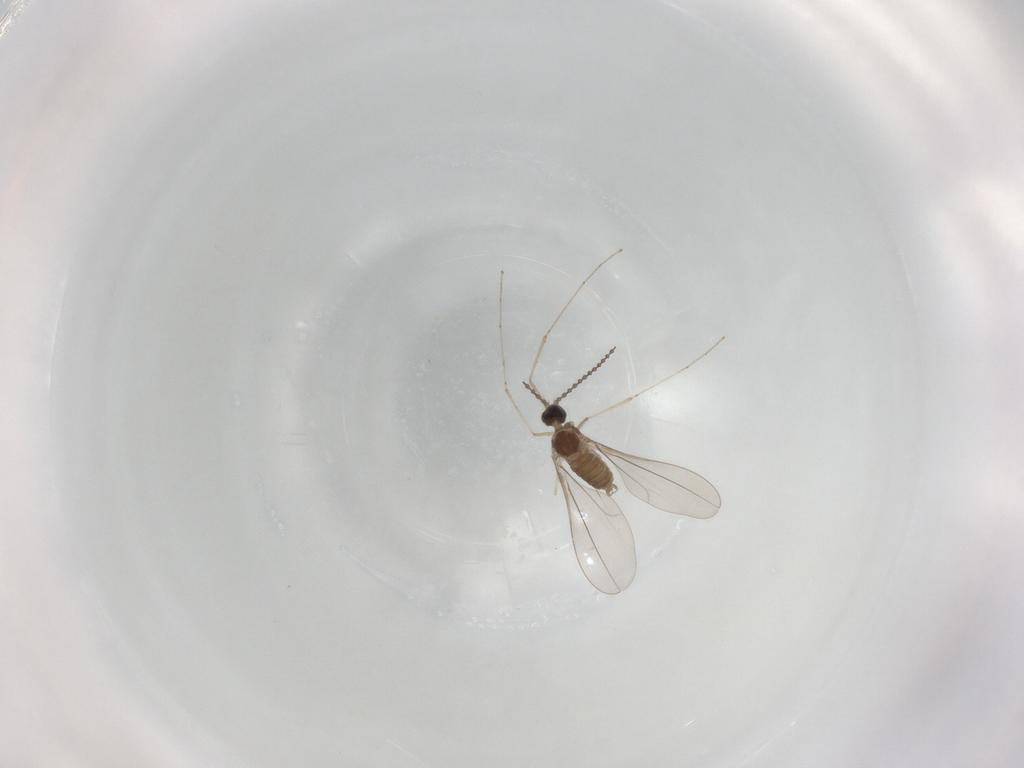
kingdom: Animalia
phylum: Arthropoda
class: Insecta
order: Diptera
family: Cecidomyiidae
